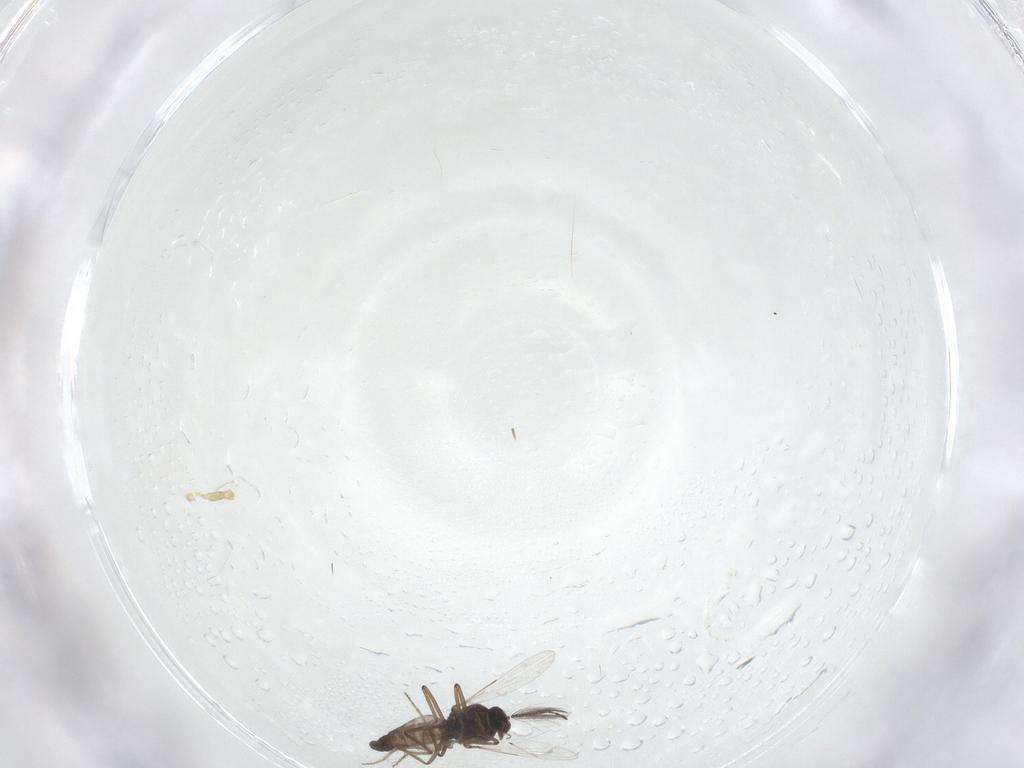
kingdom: Animalia
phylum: Arthropoda
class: Insecta
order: Diptera
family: Ceratopogonidae
